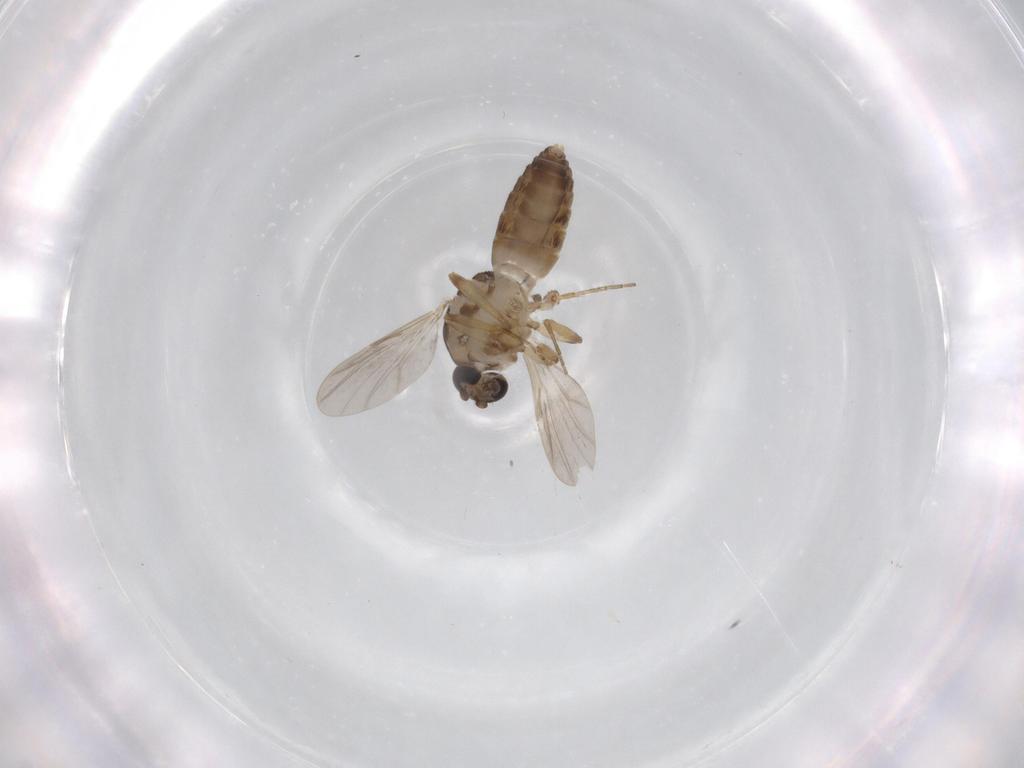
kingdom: Animalia
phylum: Arthropoda
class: Insecta
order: Diptera
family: Ceratopogonidae
